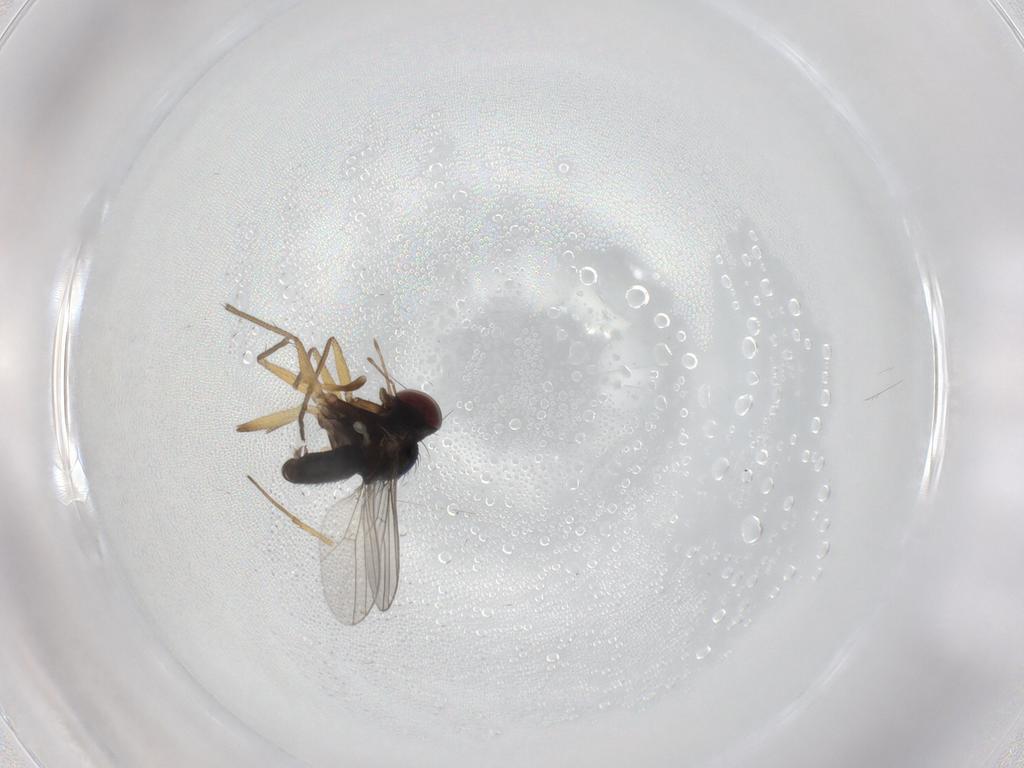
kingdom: Animalia
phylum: Arthropoda
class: Insecta
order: Diptera
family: Dolichopodidae
